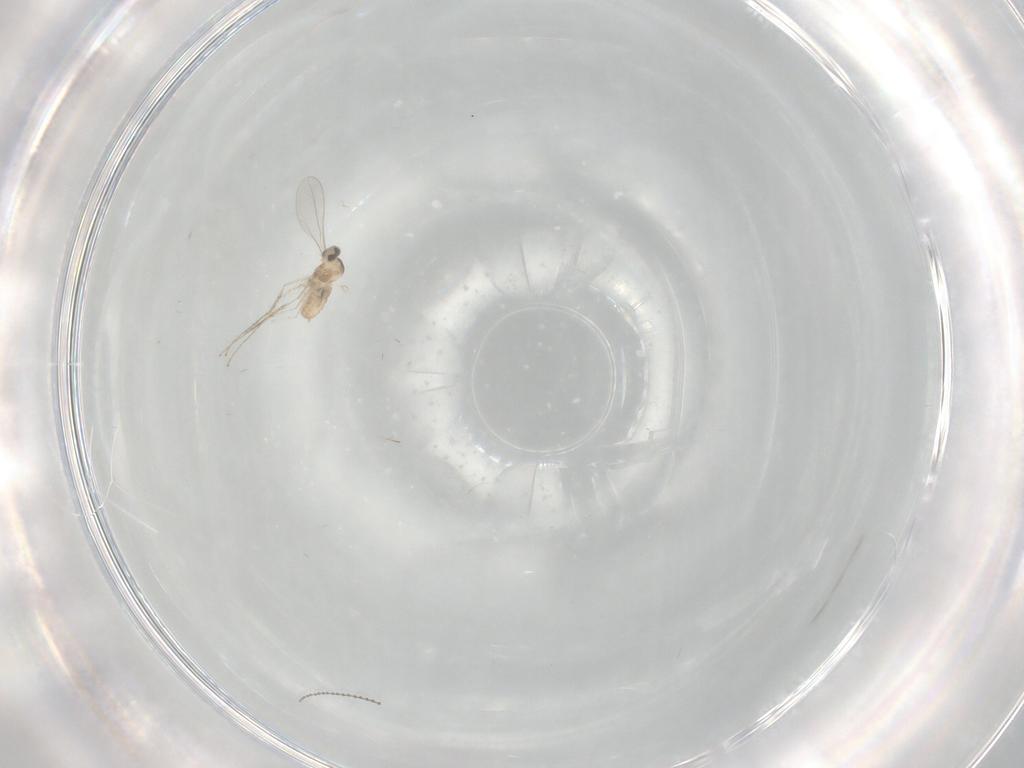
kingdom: Animalia
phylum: Arthropoda
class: Insecta
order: Diptera
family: Cecidomyiidae
